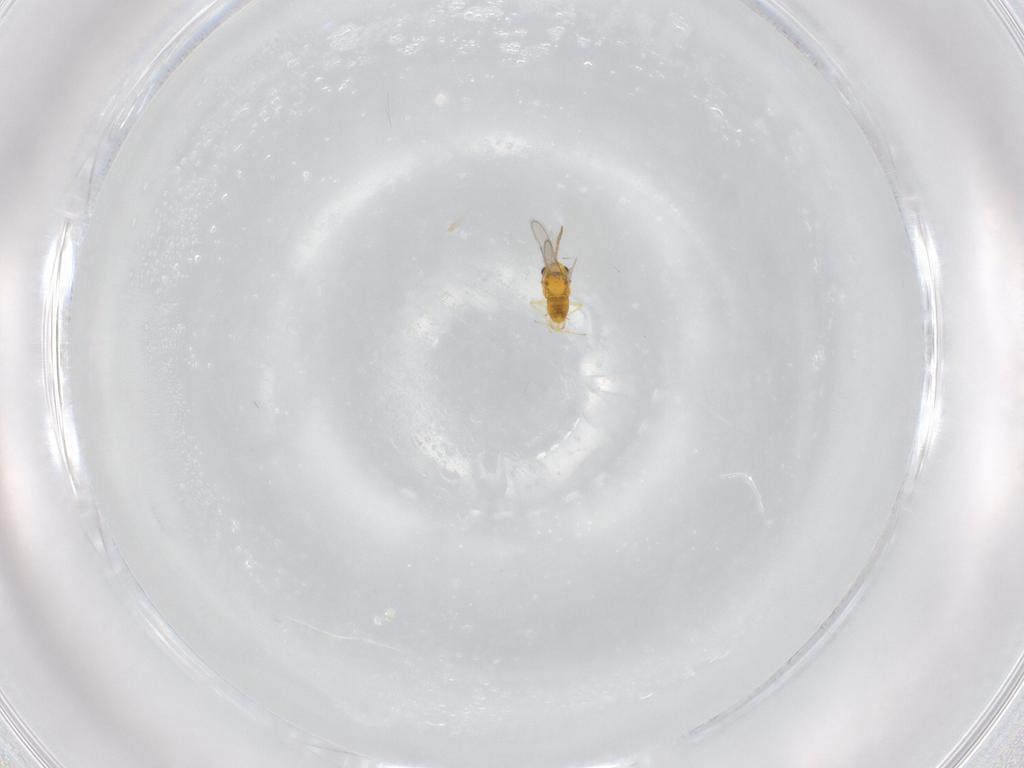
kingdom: Animalia
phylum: Arthropoda
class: Insecta
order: Hymenoptera
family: Aphelinidae
